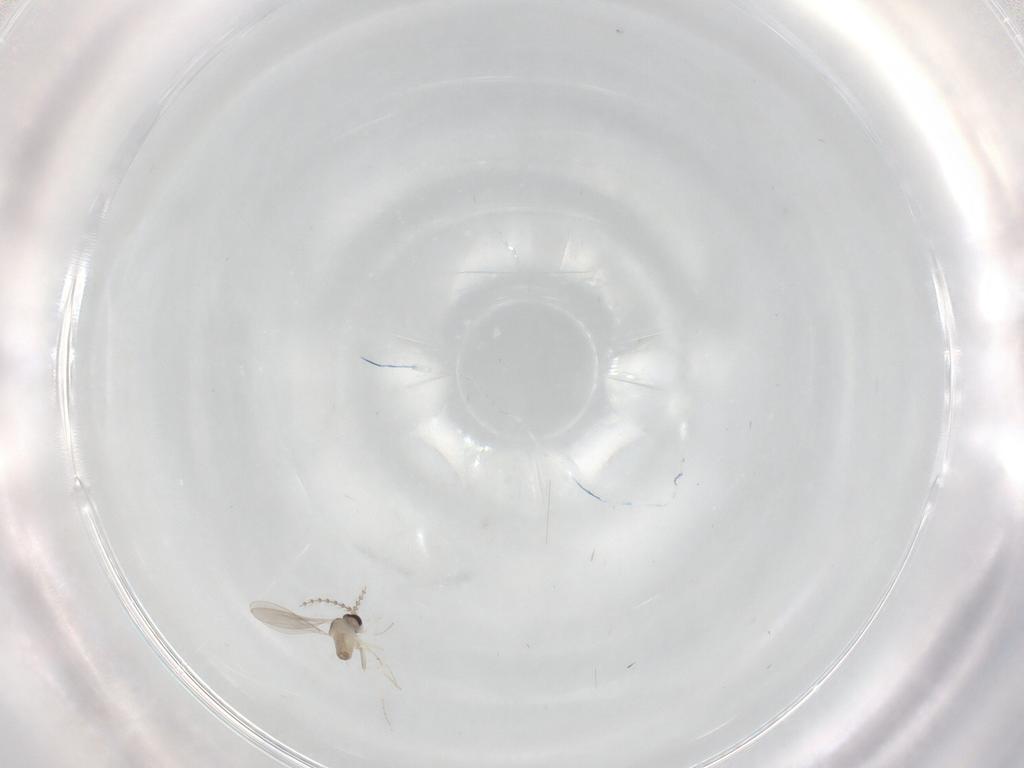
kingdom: Animalia
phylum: Arthropoda
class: Insecta
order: Diptera
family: Cecidomyiidae
